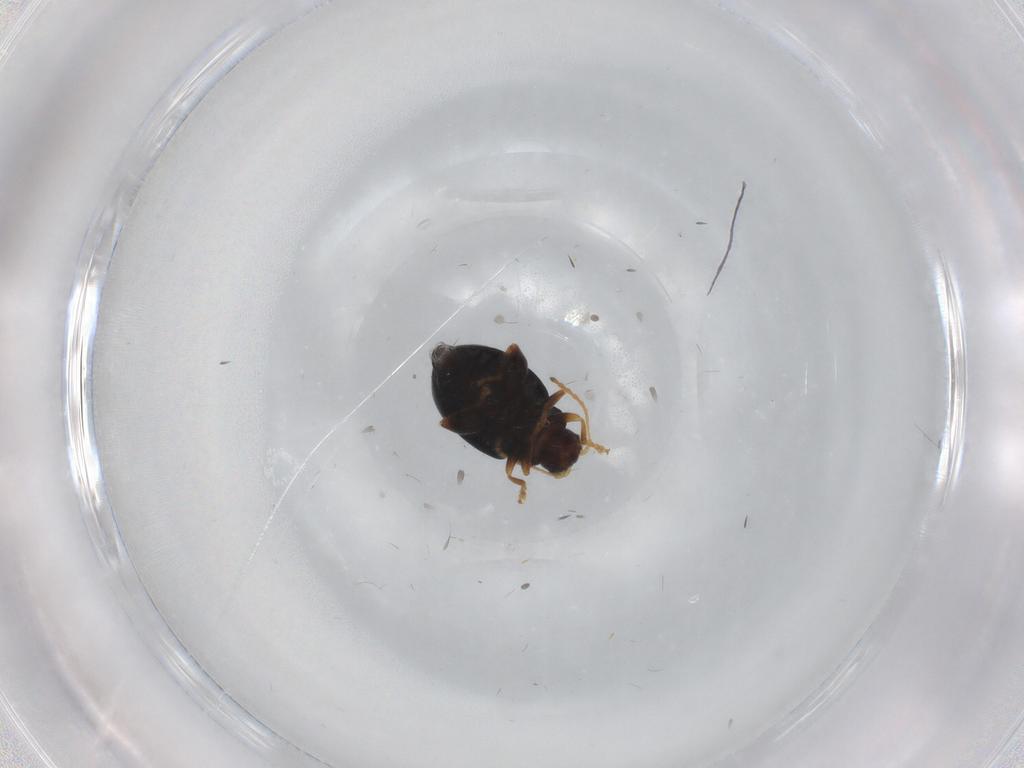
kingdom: Animalia
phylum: Arthropoda
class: Insecta
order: Coleoptera
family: Chrysomelidae
